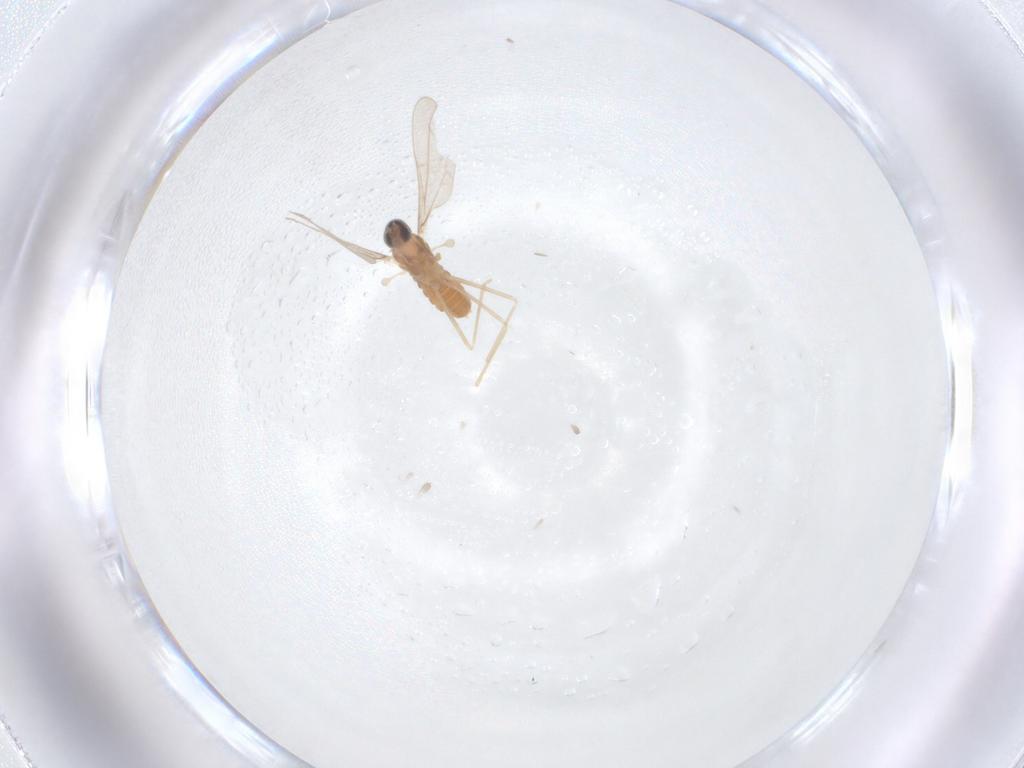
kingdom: Animalia
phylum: Arthropoda
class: Insecta
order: Diptera
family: Cecidomyiidae
